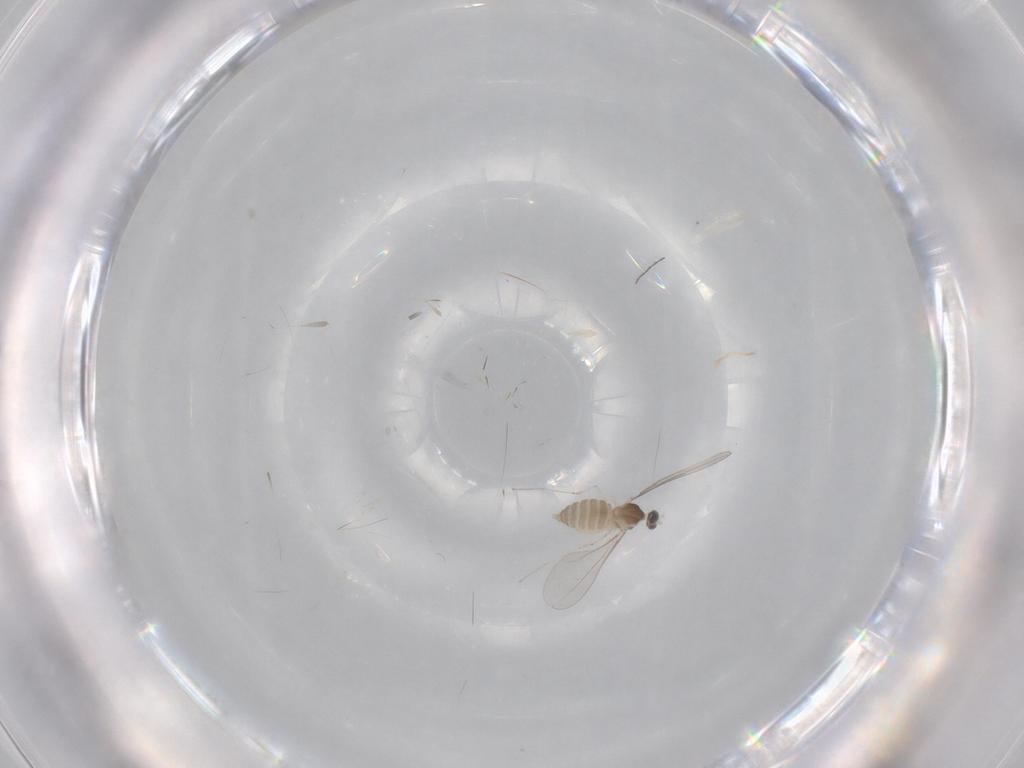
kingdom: Animalia
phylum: Arthropoda
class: Insecta
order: Diptera
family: Cecidomyiidae
